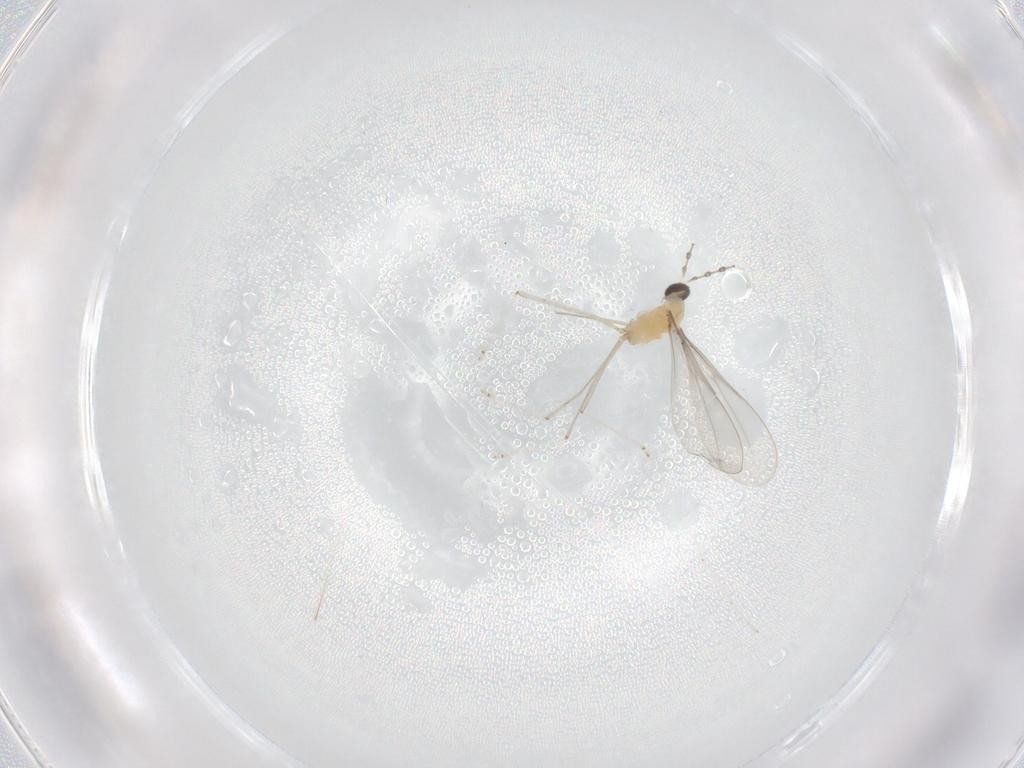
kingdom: Animalia
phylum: Arthropoda
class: Insecta
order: Diptera
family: Cecidomyiidae
